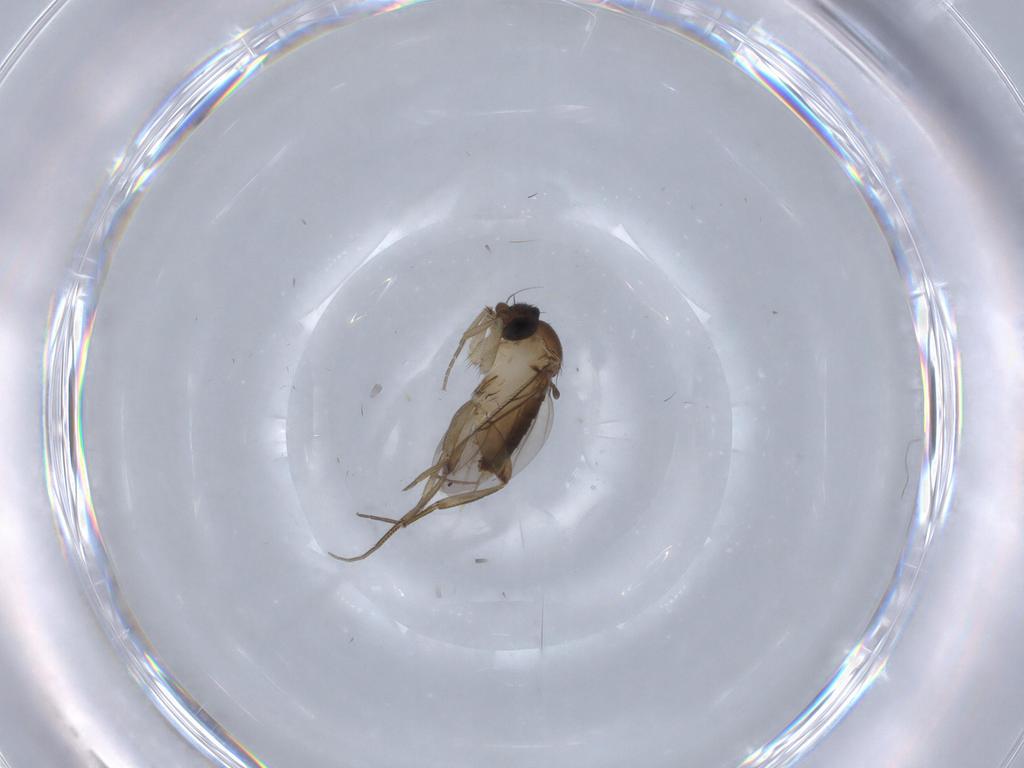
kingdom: Animalia
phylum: Arthropoda
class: Insecta
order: Diptera
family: Phoridae
